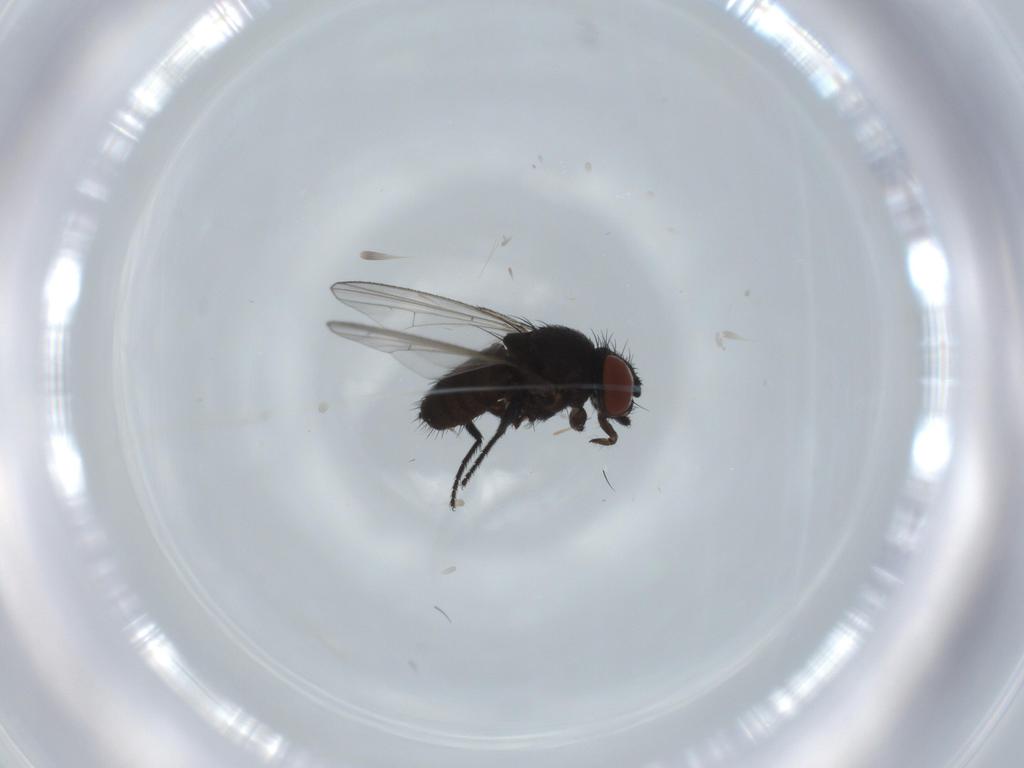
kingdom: Animalia
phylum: Arthropoda
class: Insecta
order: Diptera
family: Milichiidae
